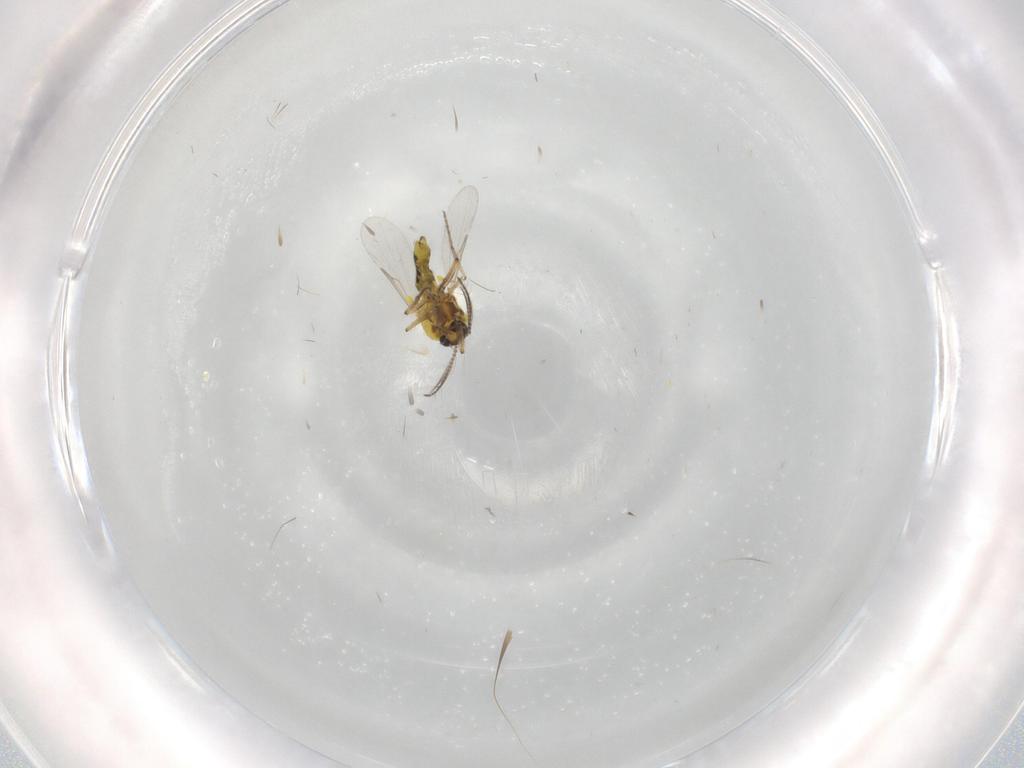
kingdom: Animalia
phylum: Arthropoda
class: Insecta
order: Diptera
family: Ceratopogonidae
